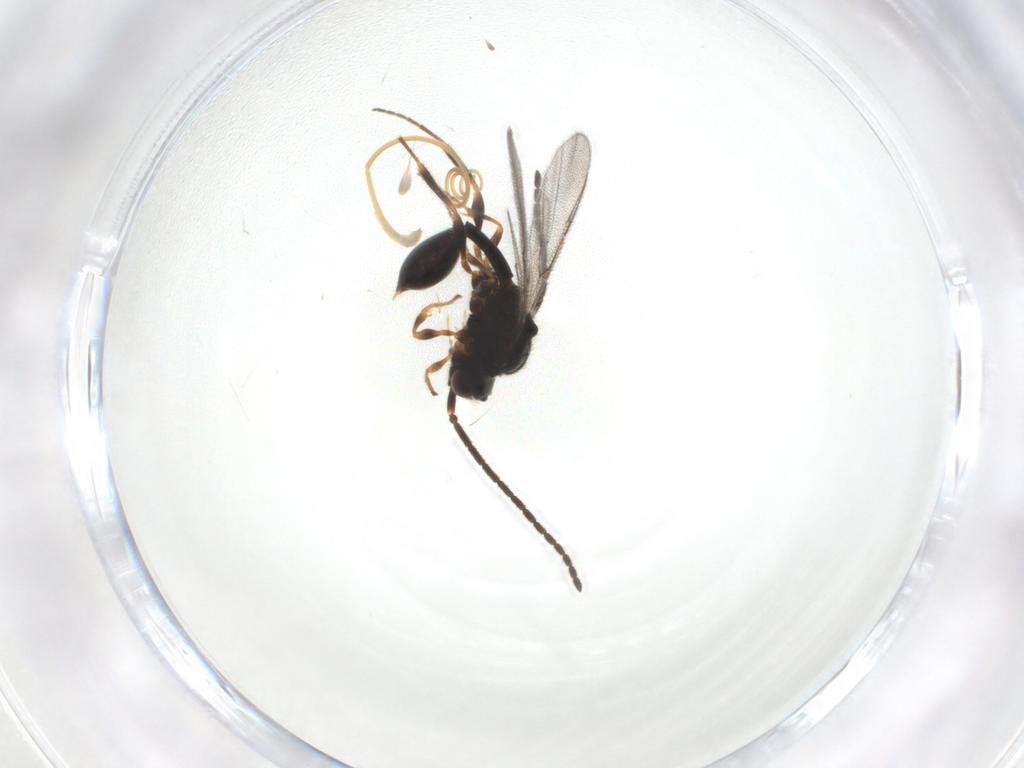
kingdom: Animalia
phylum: Arthropoda
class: Insecta
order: Hymenoptera
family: Diapriidae
